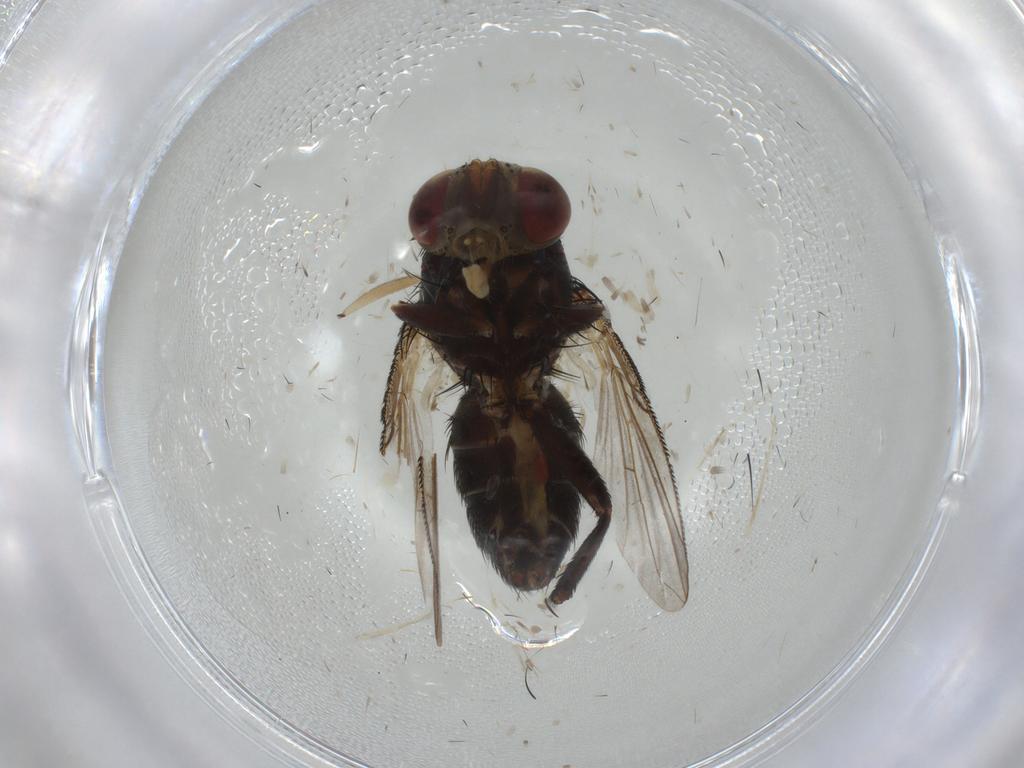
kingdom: Animalia
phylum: Arthropoda
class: Insecta
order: Diptera
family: Tachinidae
